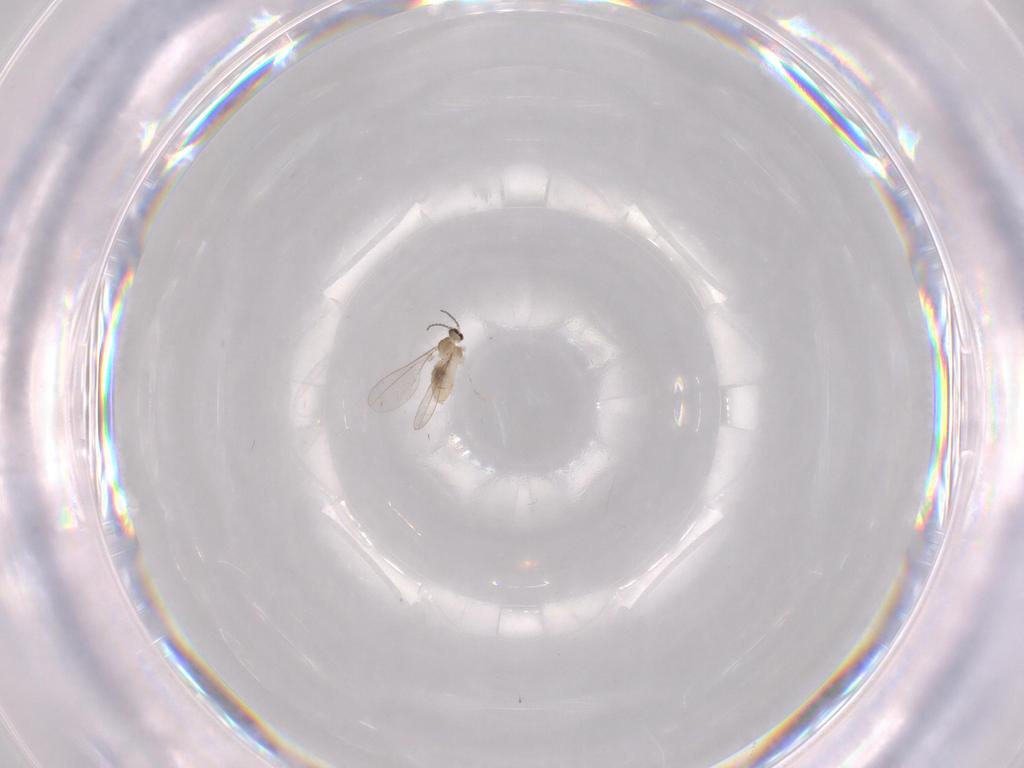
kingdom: Animalia
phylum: Arthropoda
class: Insecta
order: Diptera
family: Cecidomyiidae
